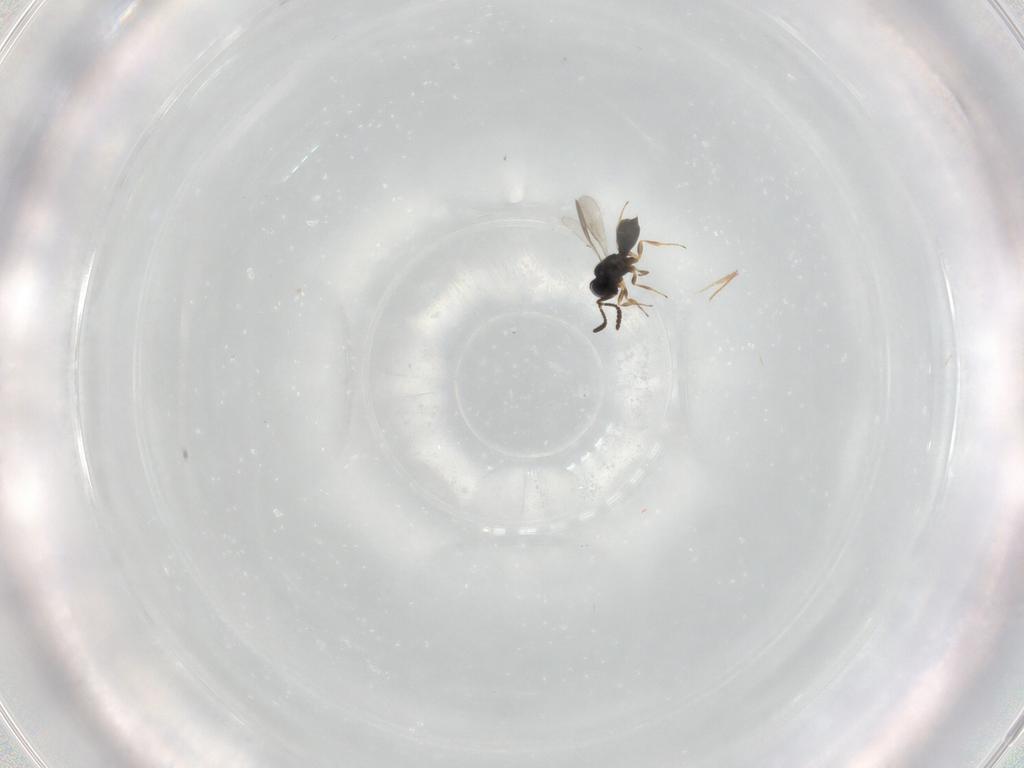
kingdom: Animalia
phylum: Arthropoda
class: Insecta
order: Hymenoptera
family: Scelionidae
